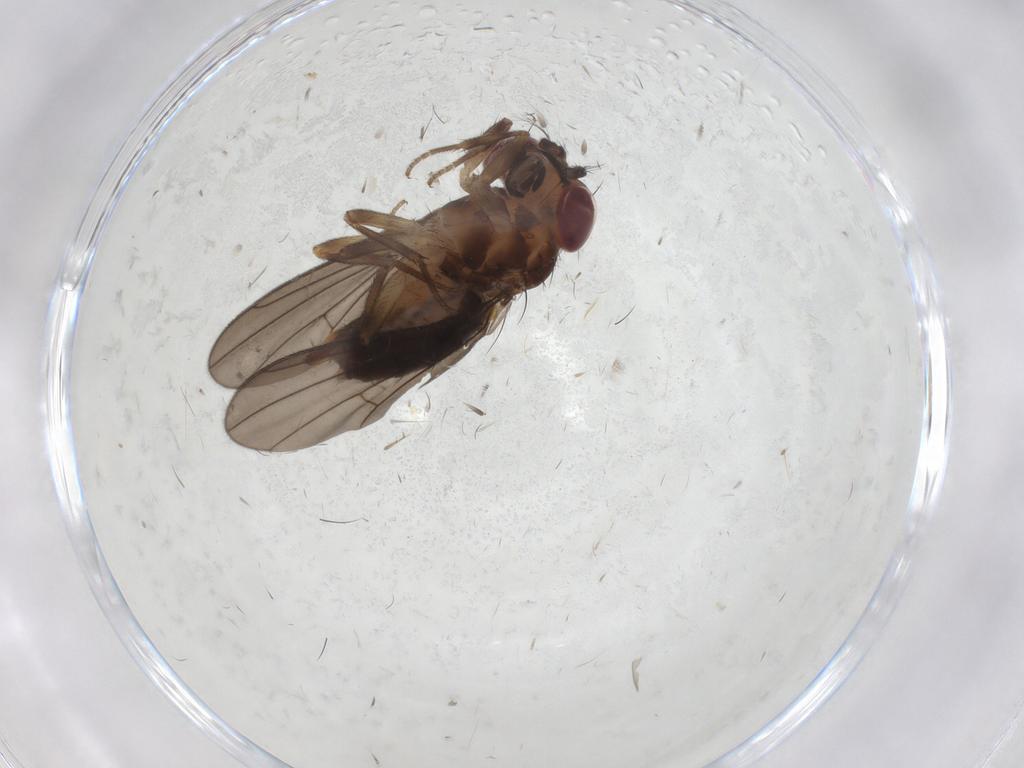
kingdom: Animalia
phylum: Arthropoda
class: Insecta
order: Diptera
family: Drosophilidae
